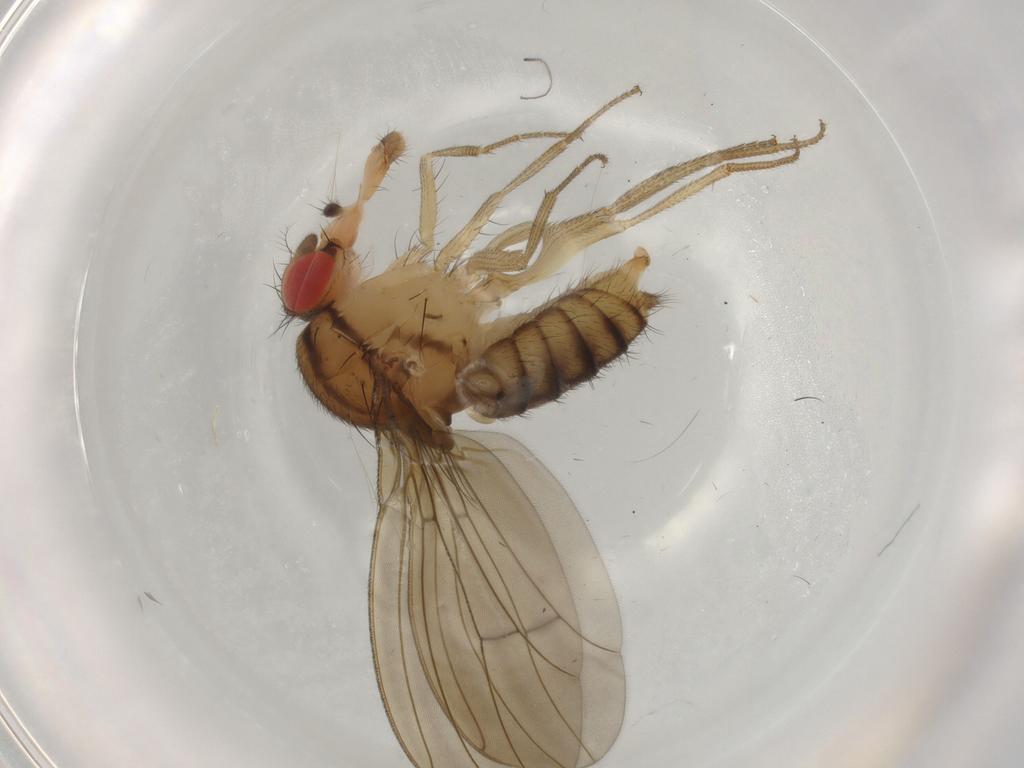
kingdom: Animalia
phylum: Arthropoda
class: Insecta
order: Diptera
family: Drosophilidae
